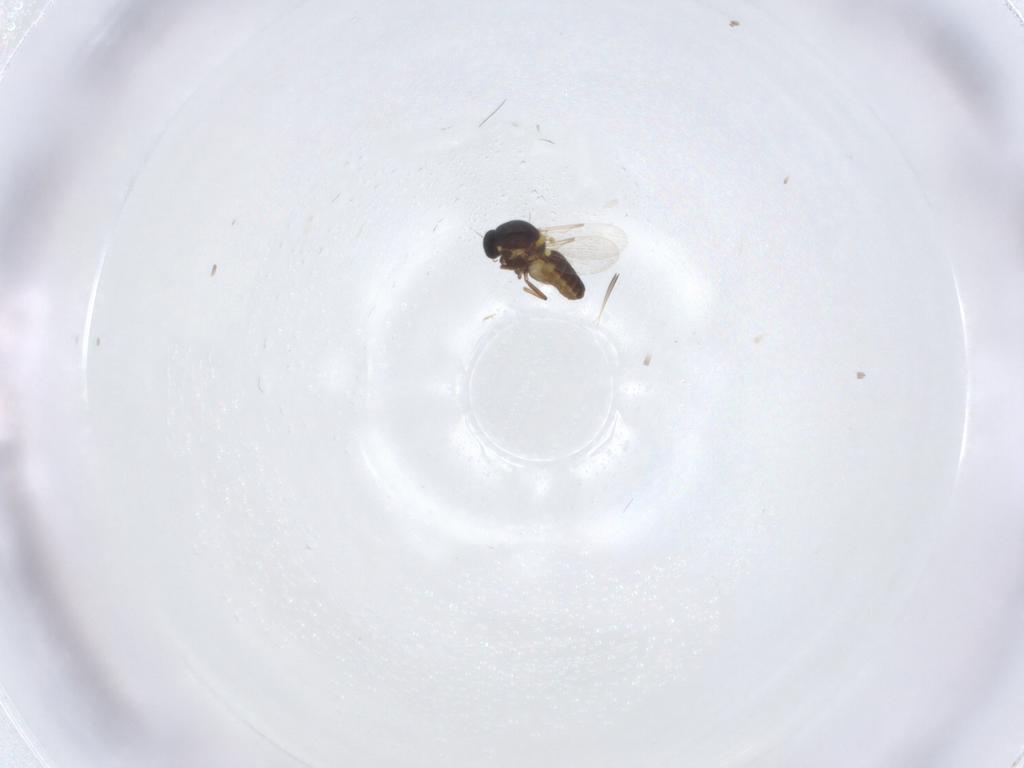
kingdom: Animalia
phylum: Arthropoda
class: Insecta
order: Diptera
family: Ceratopogonidae
